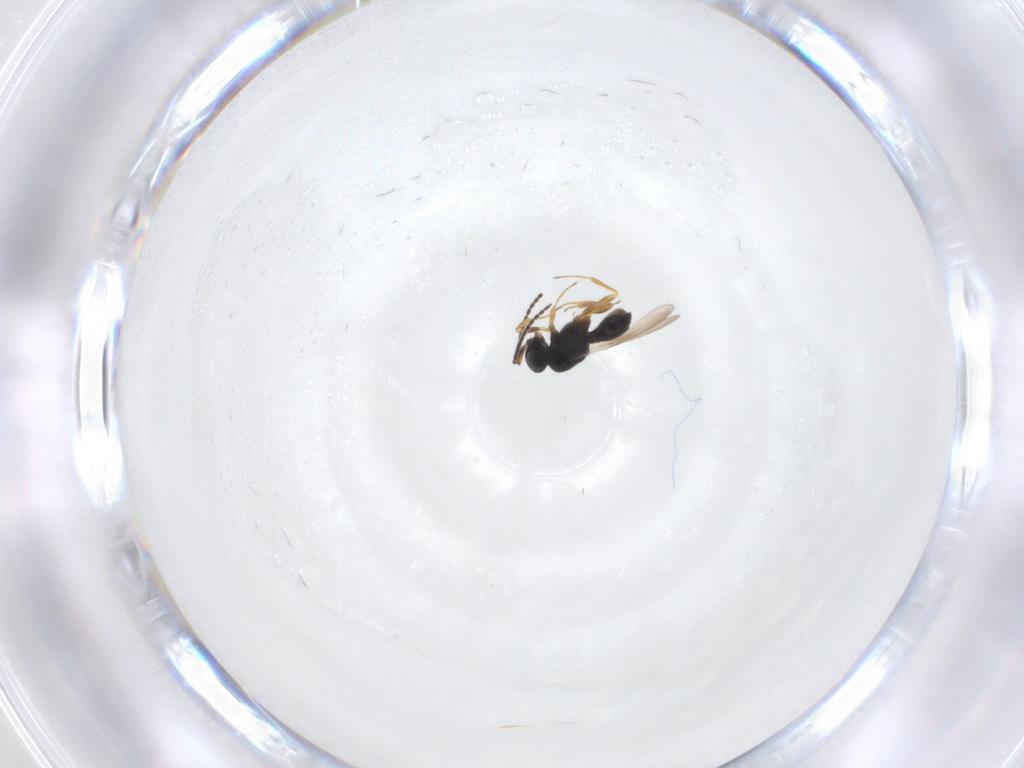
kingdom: Animalia
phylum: Arthropoda
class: Insecta
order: Hymenoptera
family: Scelionidae
